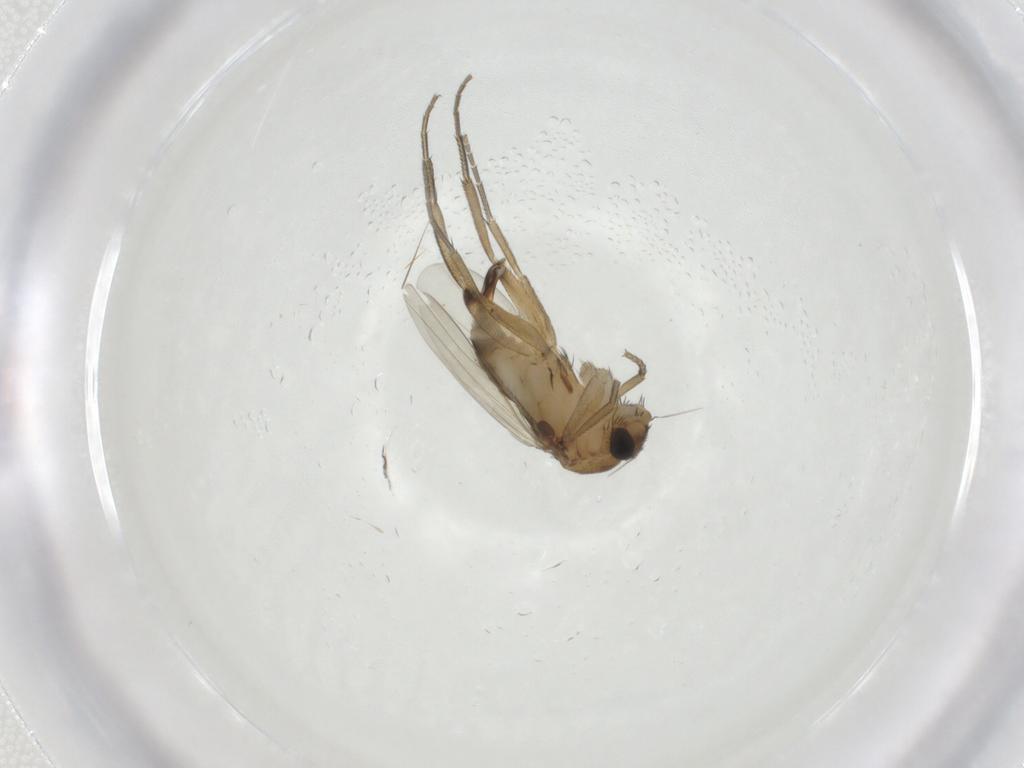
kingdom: Animalia
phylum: Arthropoda
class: Insecta
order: Diptera
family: Phoridae
